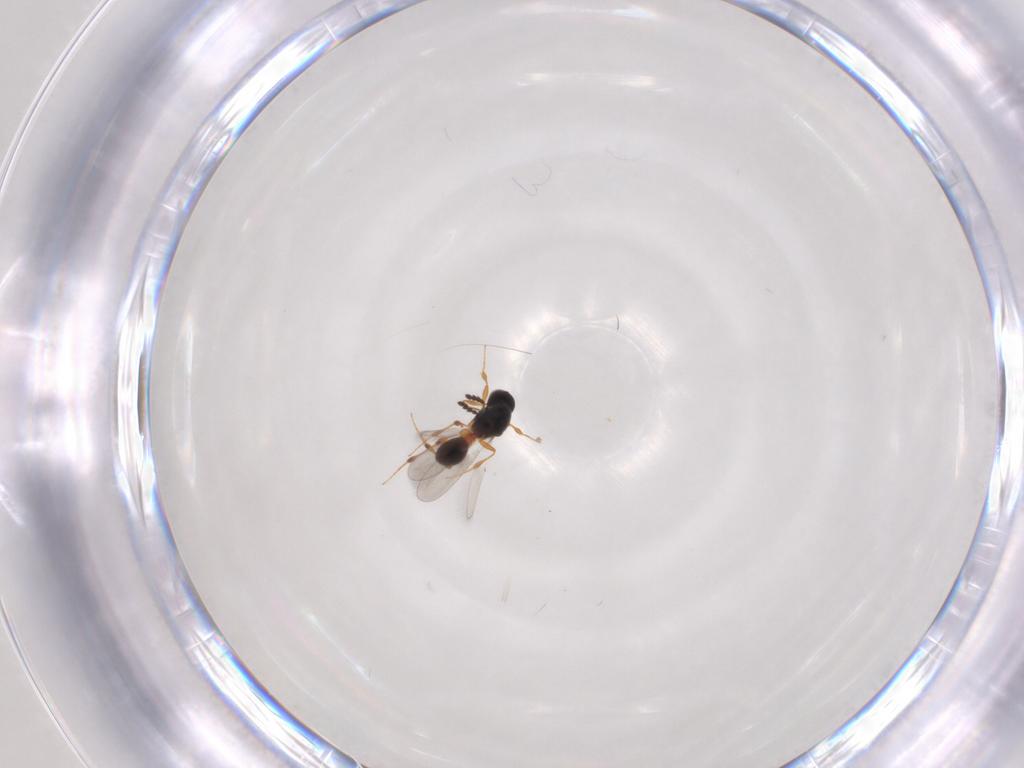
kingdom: Animalia
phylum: Arthropoda
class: Insecta
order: Hymenoptera
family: Platygastridae
